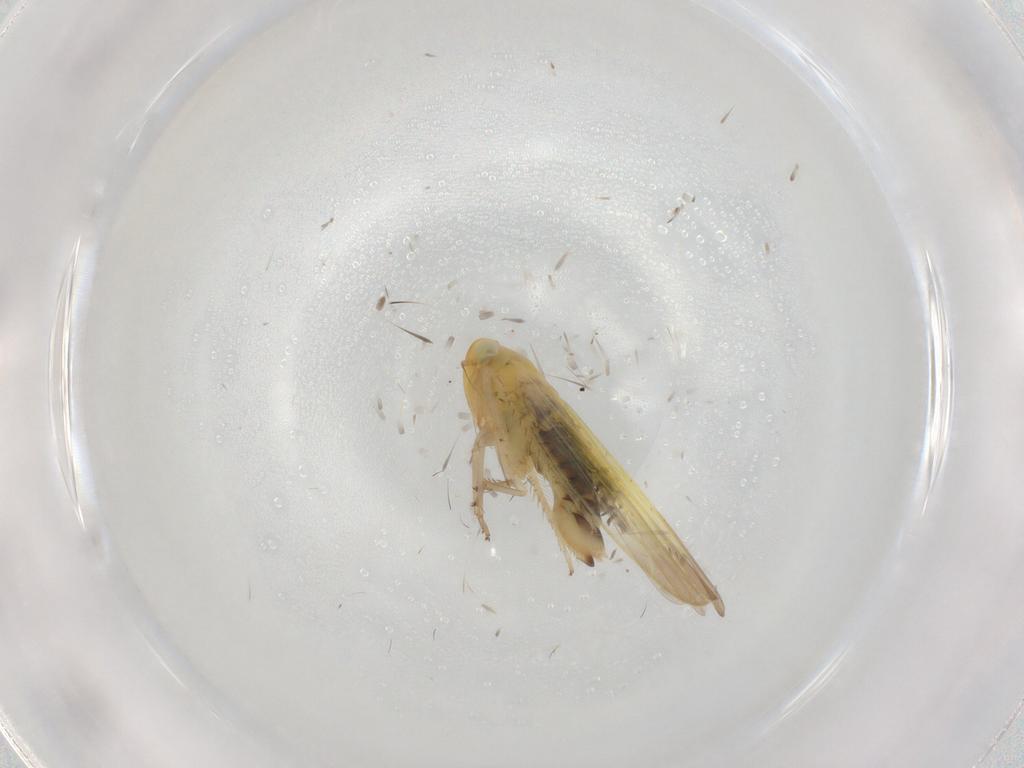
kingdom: Animalia
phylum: Arthropoda
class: Insecta
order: Hemiptera
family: Cicadellidae
